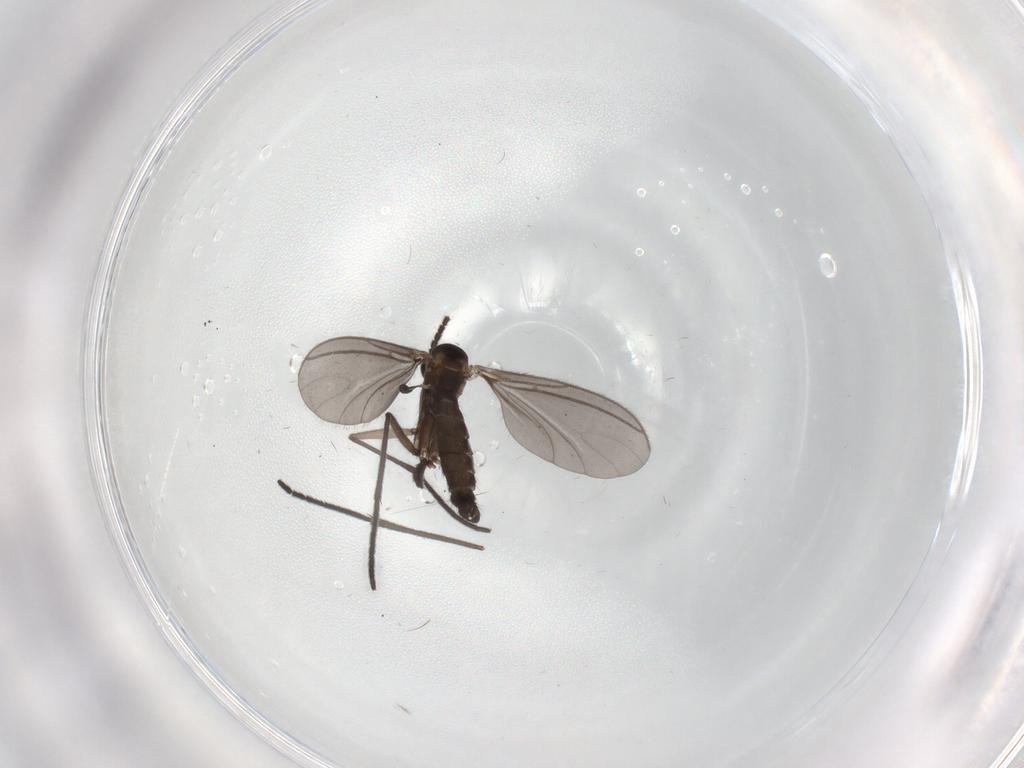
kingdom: Animalia
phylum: Arthropoda
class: Insecta
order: Diptera
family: Sciaridae
